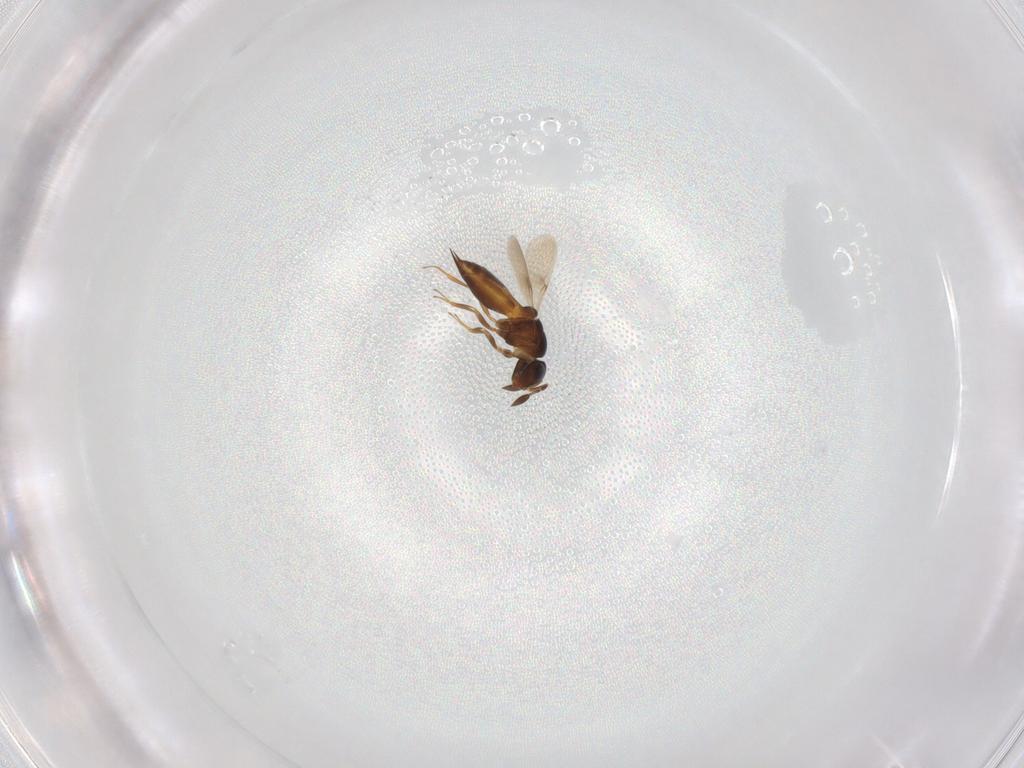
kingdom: Animalia
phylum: Arthropoda
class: Insecta
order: Hymenoptera
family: Scelionidae
